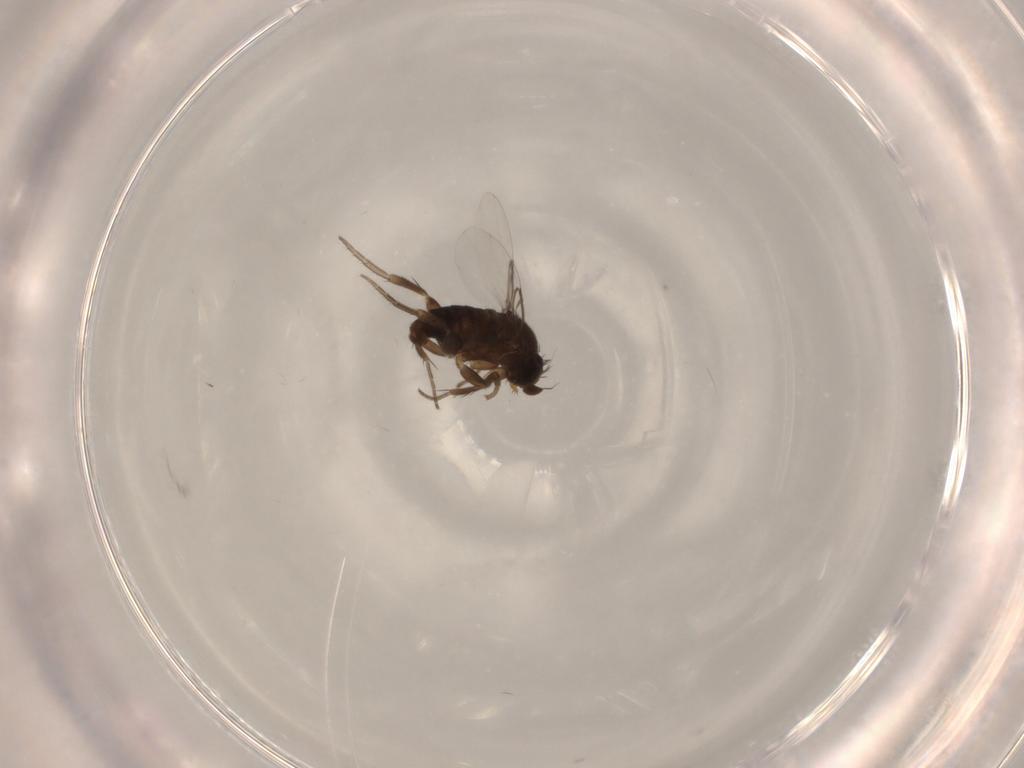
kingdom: Animalia
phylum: Arthropoda
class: Insecta
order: Diptera
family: Phoridae
